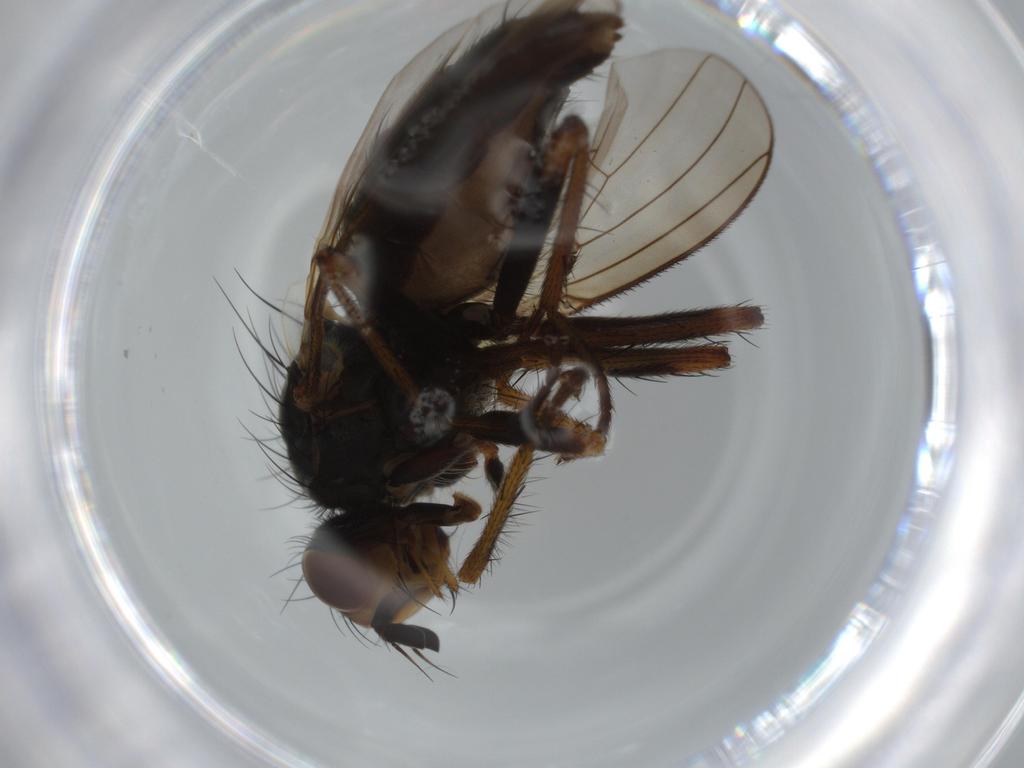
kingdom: Animalia
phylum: Arthropoda
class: Insecta
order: Diptera
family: Scathophagidae
